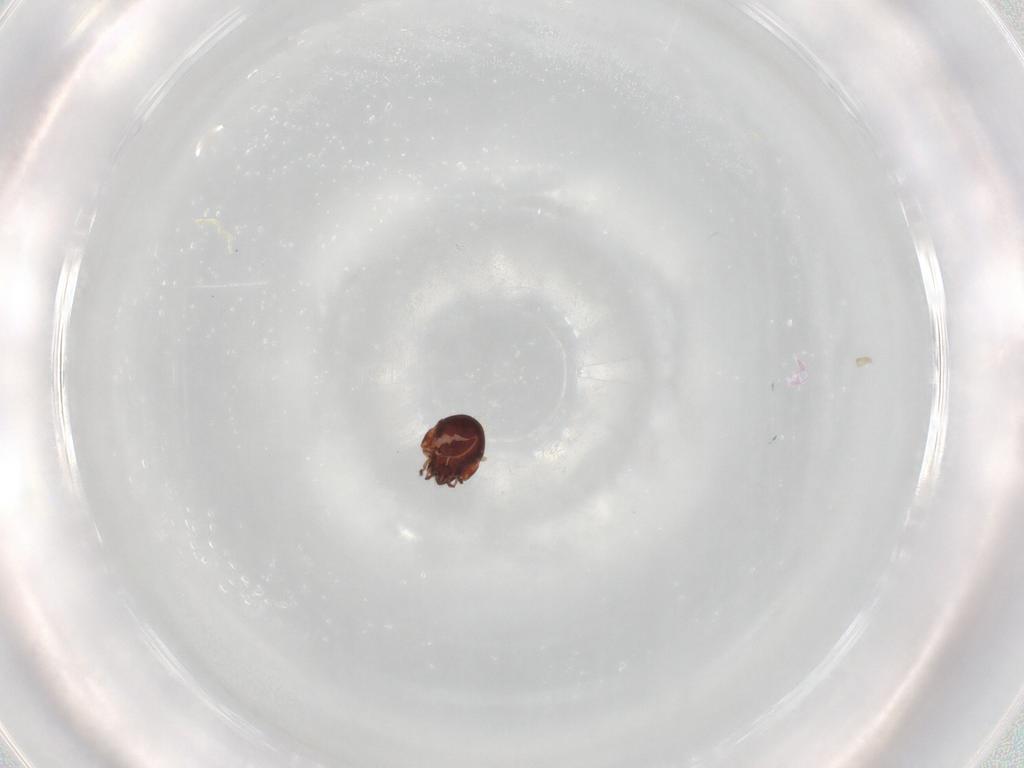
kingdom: Animalia
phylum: Arthropoda
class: Arachnida
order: Sarcoptiformes
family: Humerobatidae
